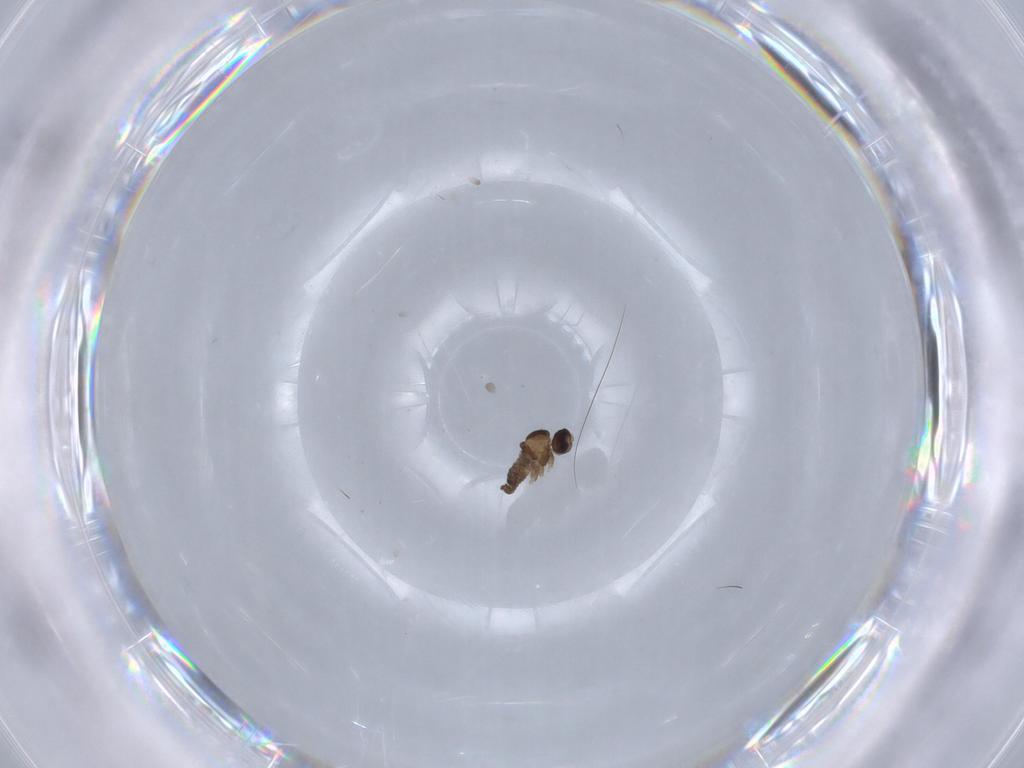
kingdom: Animalia
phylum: Arthropoda
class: Insecta
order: Diptera
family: Cecidomyiidae
